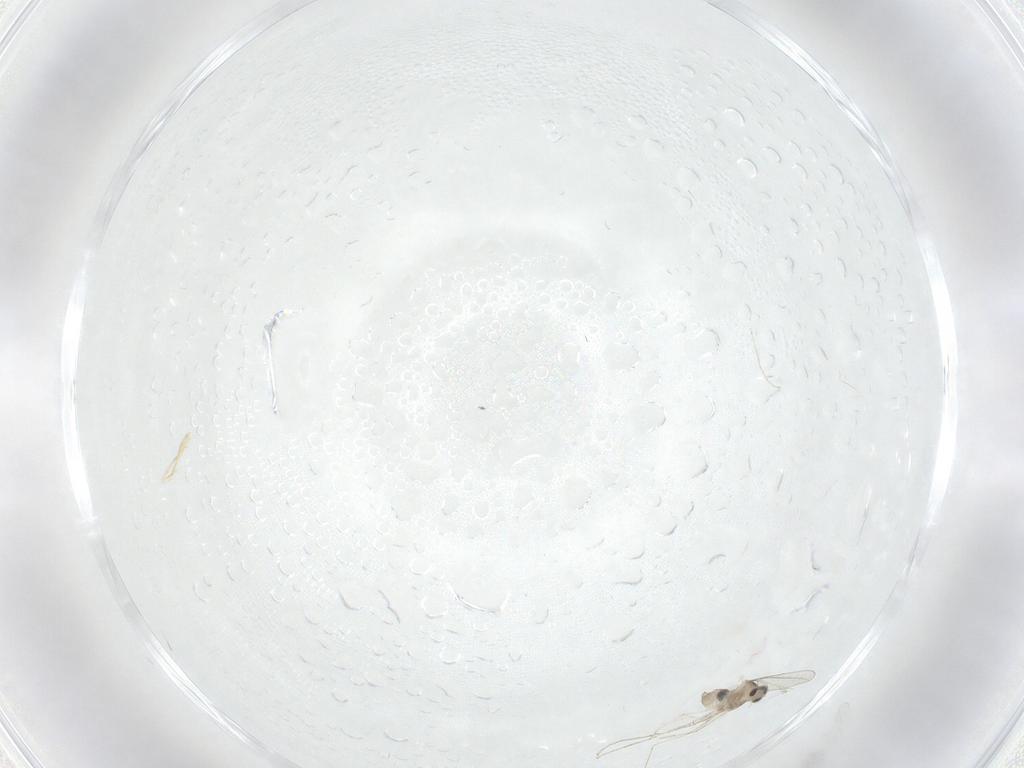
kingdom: Animalia
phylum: Arthropoda
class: Insecta
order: Diptera
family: Cecidomyiidae
